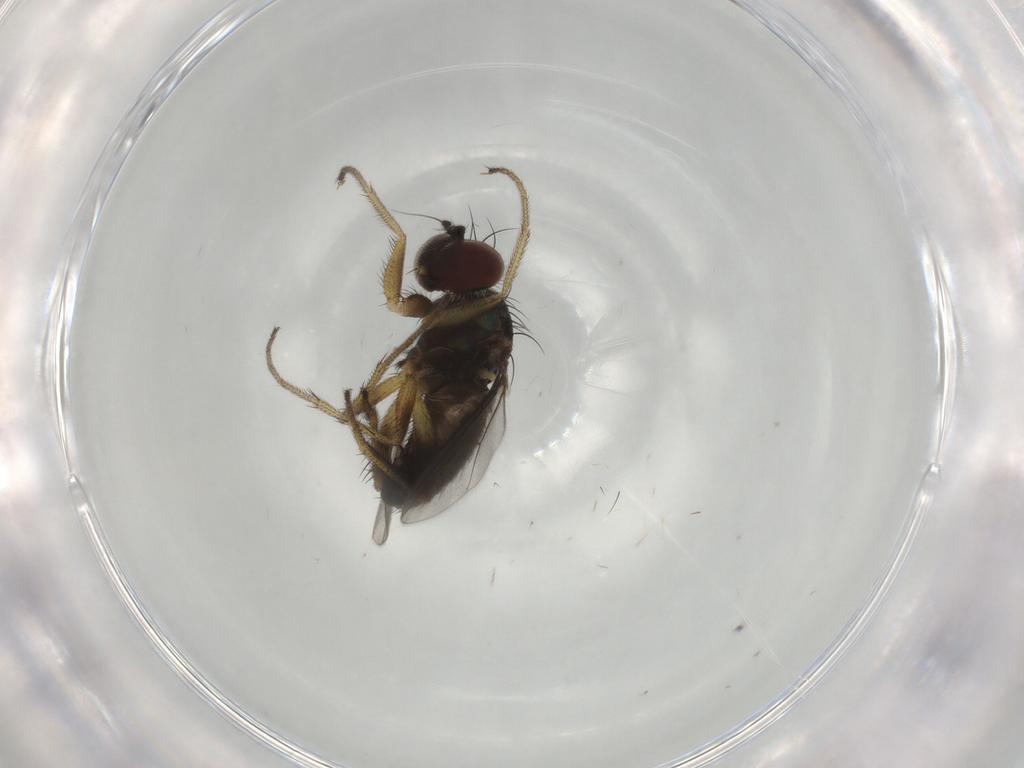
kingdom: Animalia
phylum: Arthropoda
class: Insecta
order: Diptera
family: Dolichopodidae
